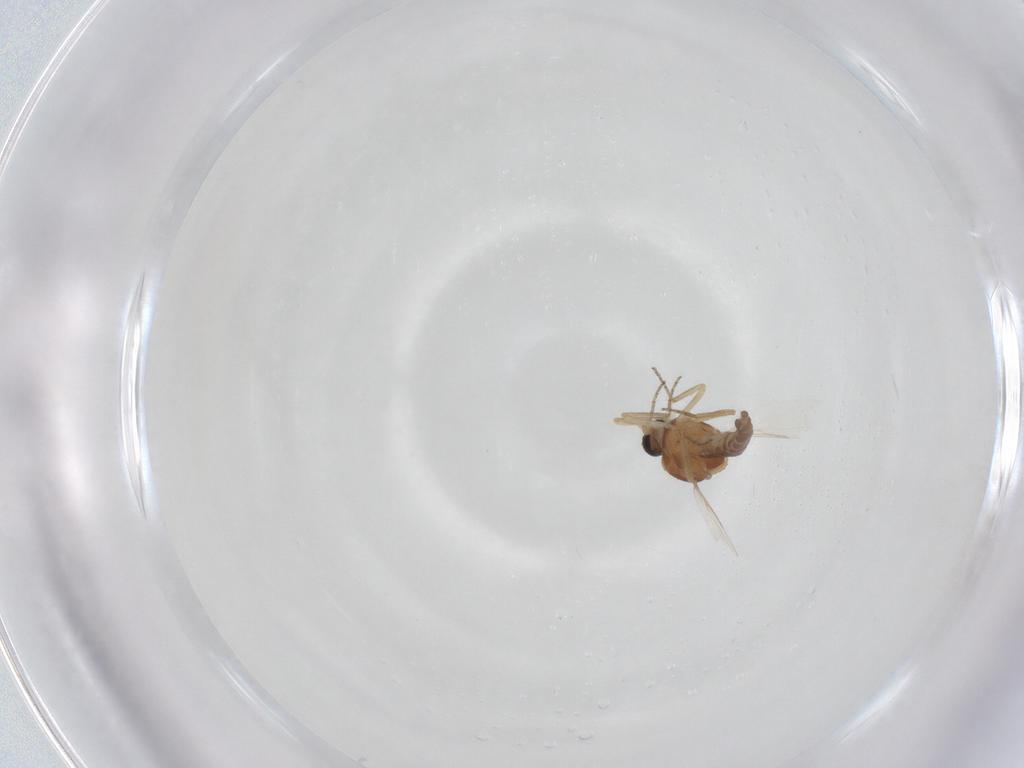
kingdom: Animalia
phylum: Arthropoda
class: Insecta
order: Diptera
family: Ceratopogonidae
